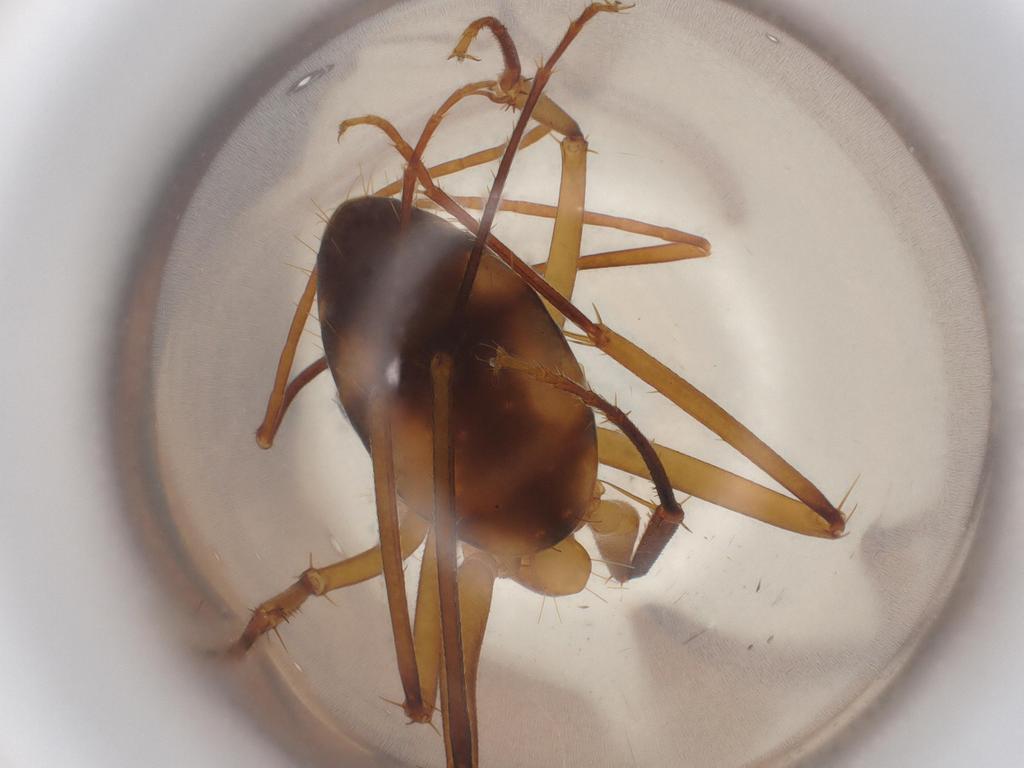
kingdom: Animalia
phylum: Arthropoda
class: Insecta
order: Hymenoptera
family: Formicidae
